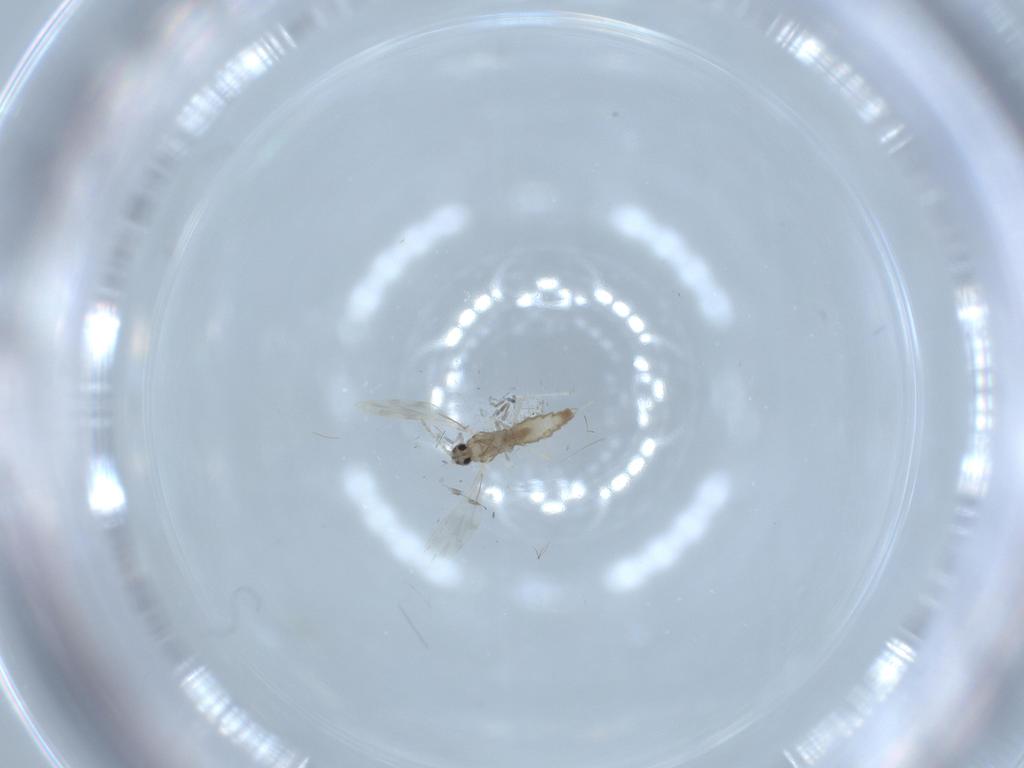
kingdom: Animalia
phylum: Arthropoda
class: Insecta
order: Diptera
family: Cecidomyiidae
